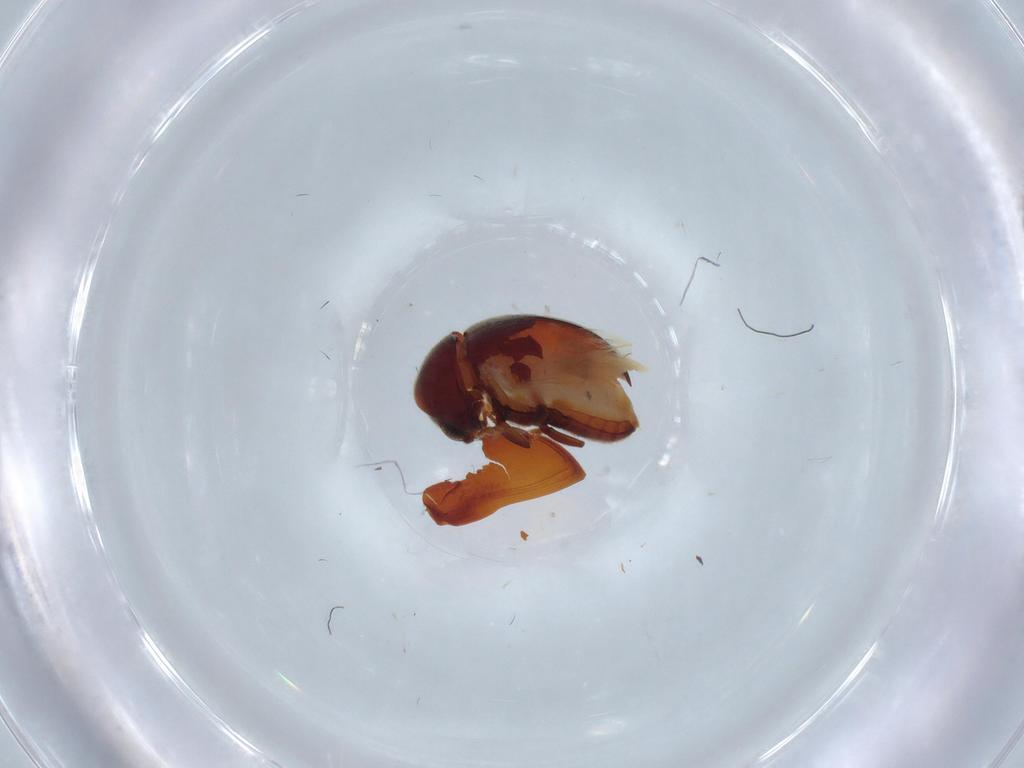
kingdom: Animalia
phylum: Arthropoda
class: Insecta
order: Coleoptera
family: Ptinidae
